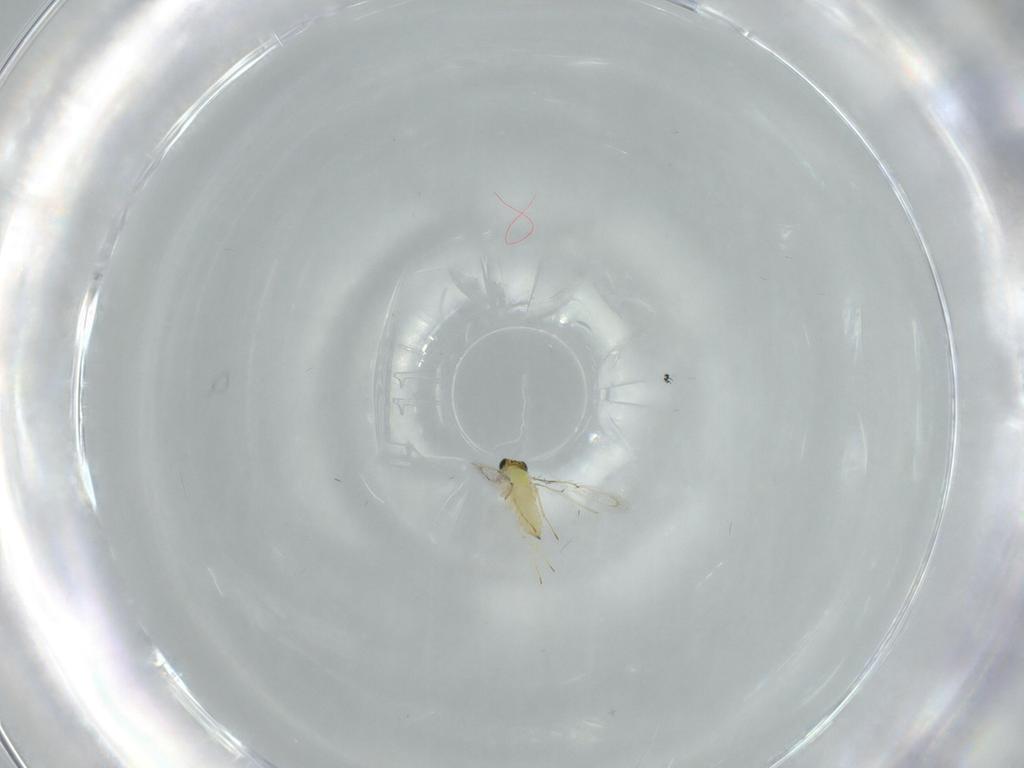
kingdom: Animalia
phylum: Arthropoda
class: Insecta
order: Hymenoptera
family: Trichogrammatidae
